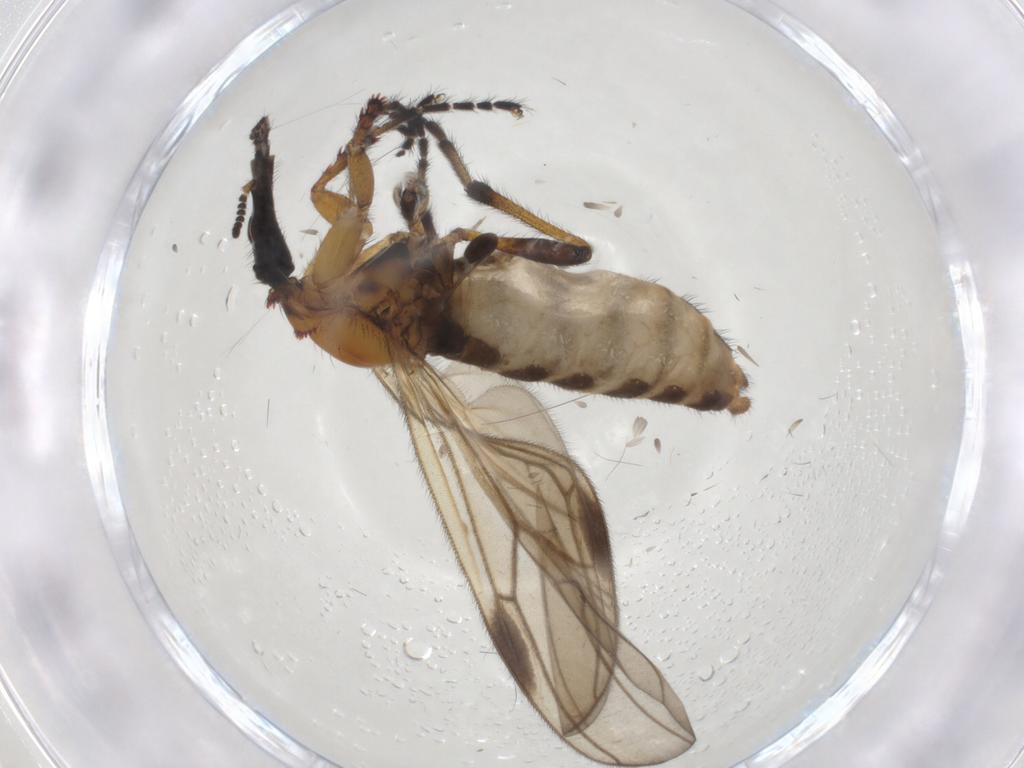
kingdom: Animalia
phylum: Arthropoda
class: Insecta
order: Diptera
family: Bibionidae
